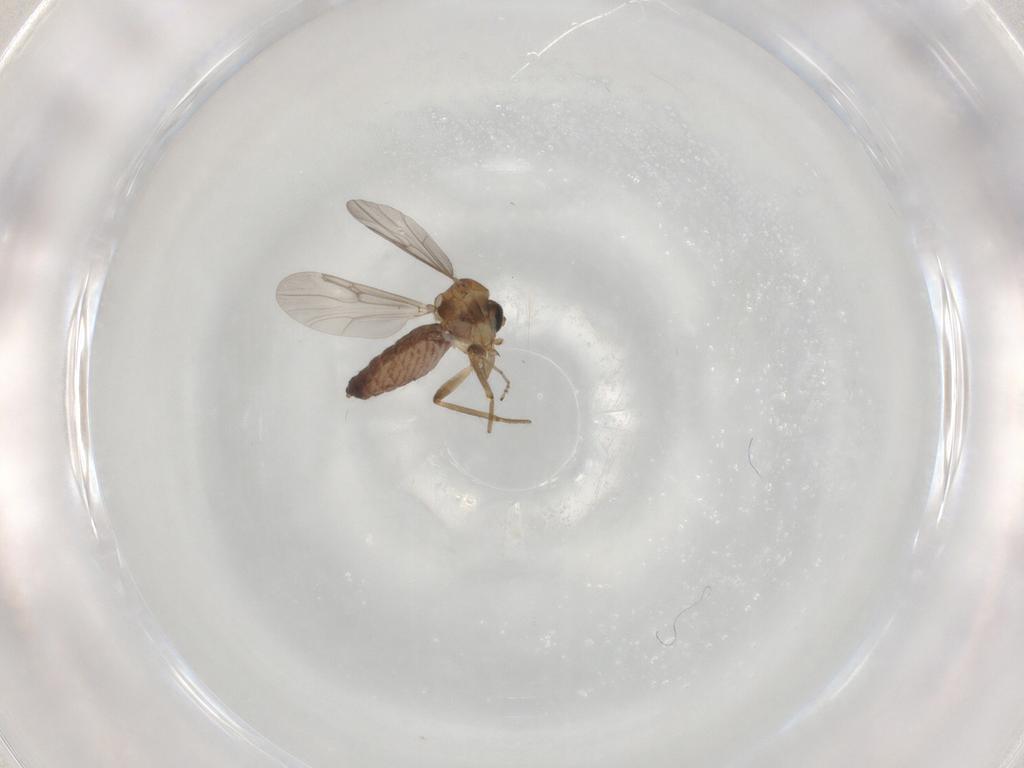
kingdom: Animalia
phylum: Arthropoda
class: Insecta
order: Diptera
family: Ceratopogonidae
